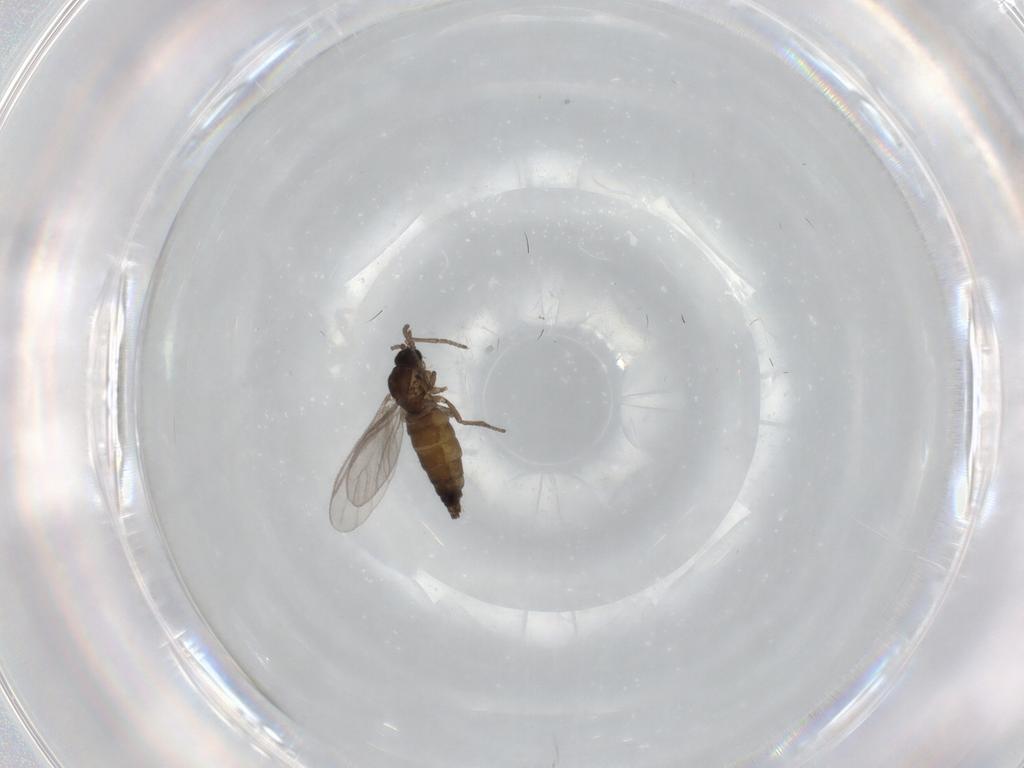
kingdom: Animalia
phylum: Arthropoda
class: Insecta
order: Diptera
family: Sciaridae
